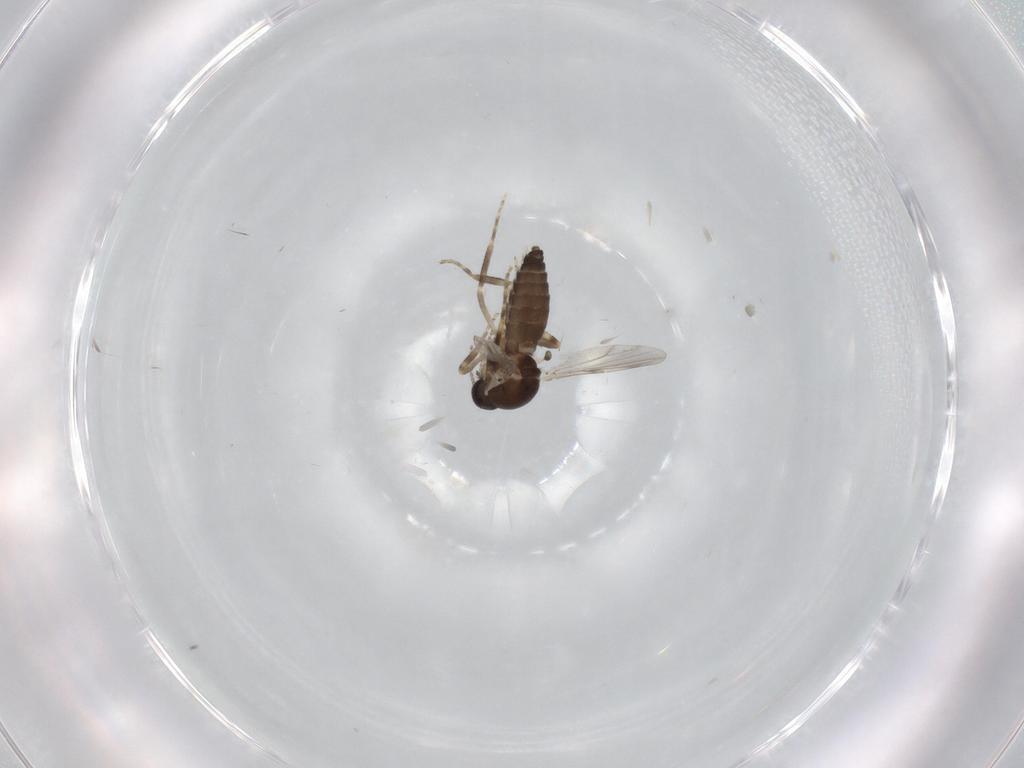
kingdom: Animalia
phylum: Arthropoda
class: Insecta
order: Diptera
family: Ceratopogonidae
